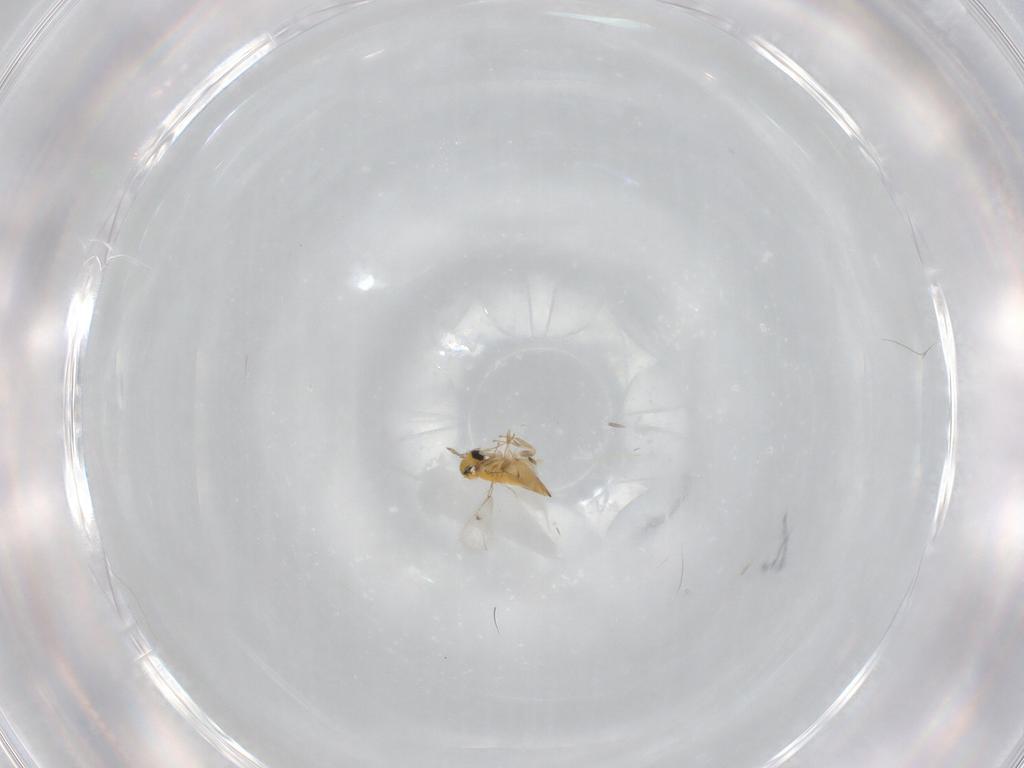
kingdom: Animalia
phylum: Arthropoda
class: Insecta
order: Hymenoptera
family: Trichogrammatidae
